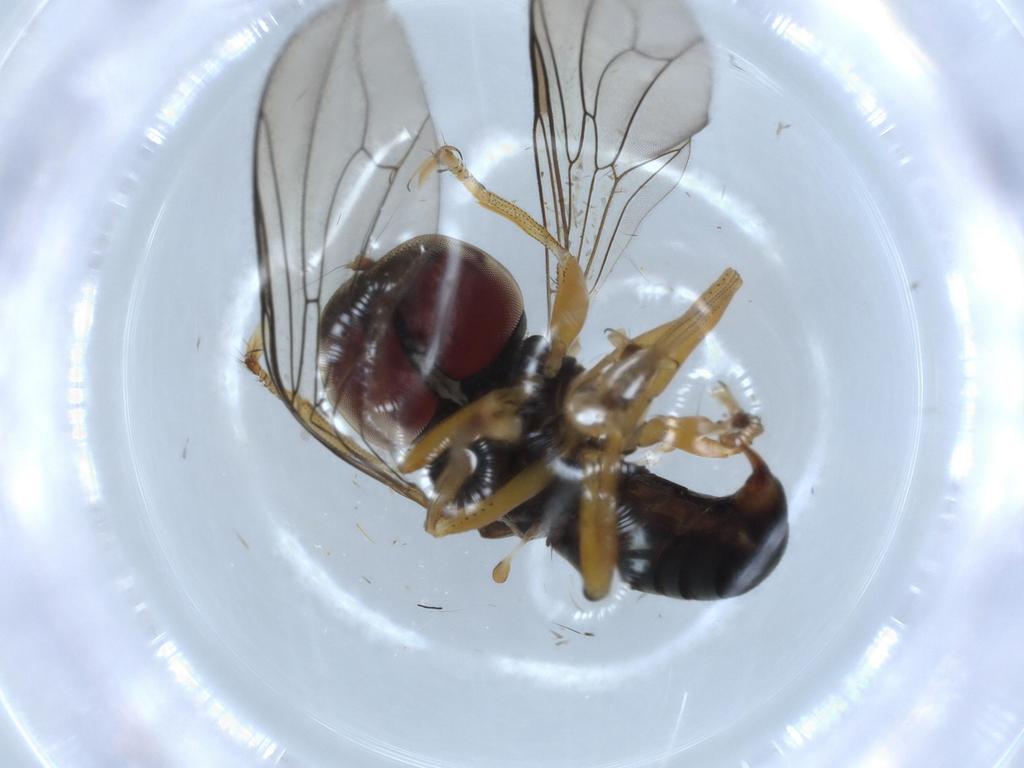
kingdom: Animalia
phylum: Arthropoda
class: Insecta
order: Diptera
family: Pipunculidae
